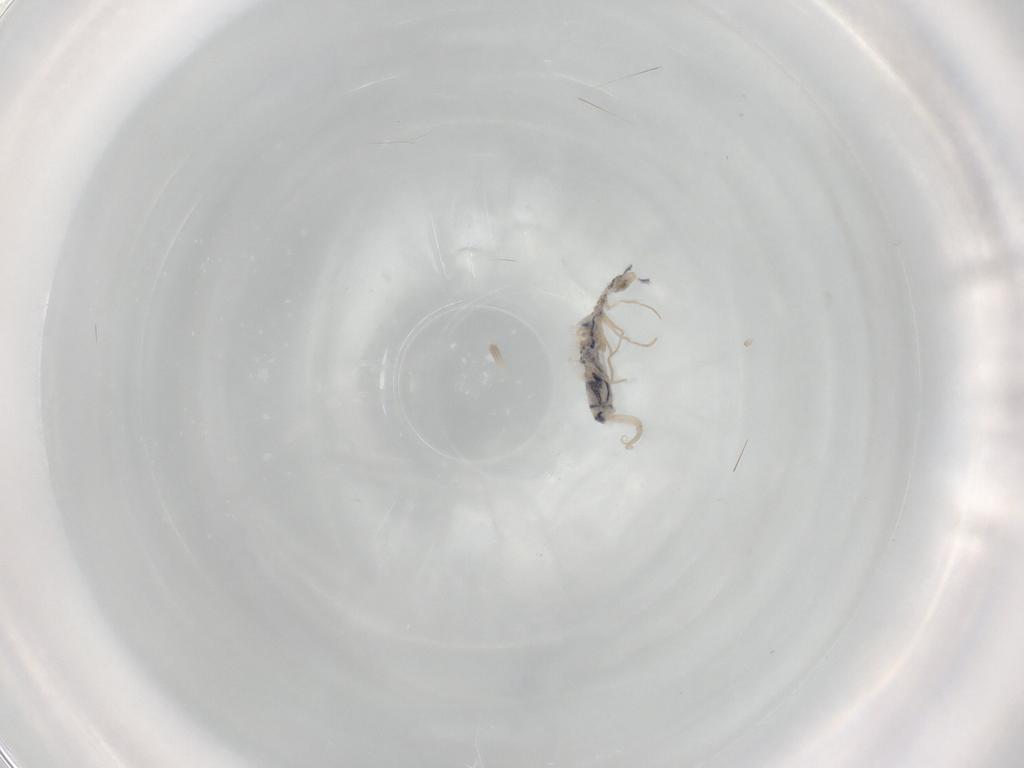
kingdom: Animalia
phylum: Arthropoda
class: Collembola
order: Entomobryomorpha
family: Entomobryidae
